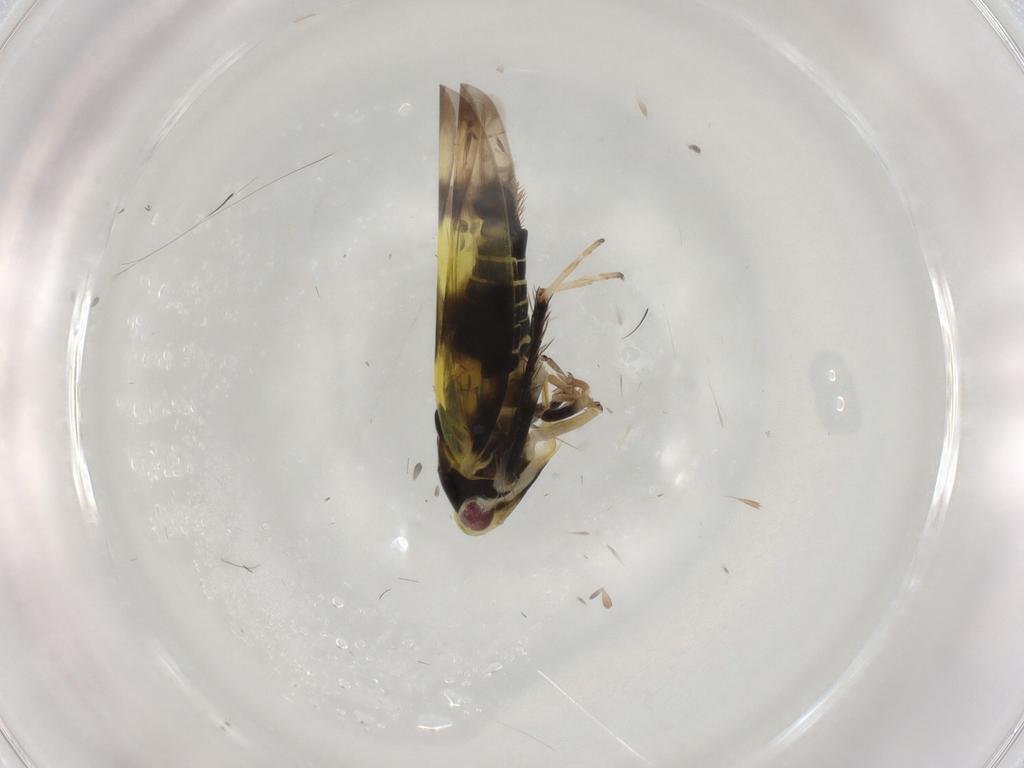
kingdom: Animalia
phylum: Arthropoda
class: Insecta
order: Hemiptera
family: Cicadellidae
